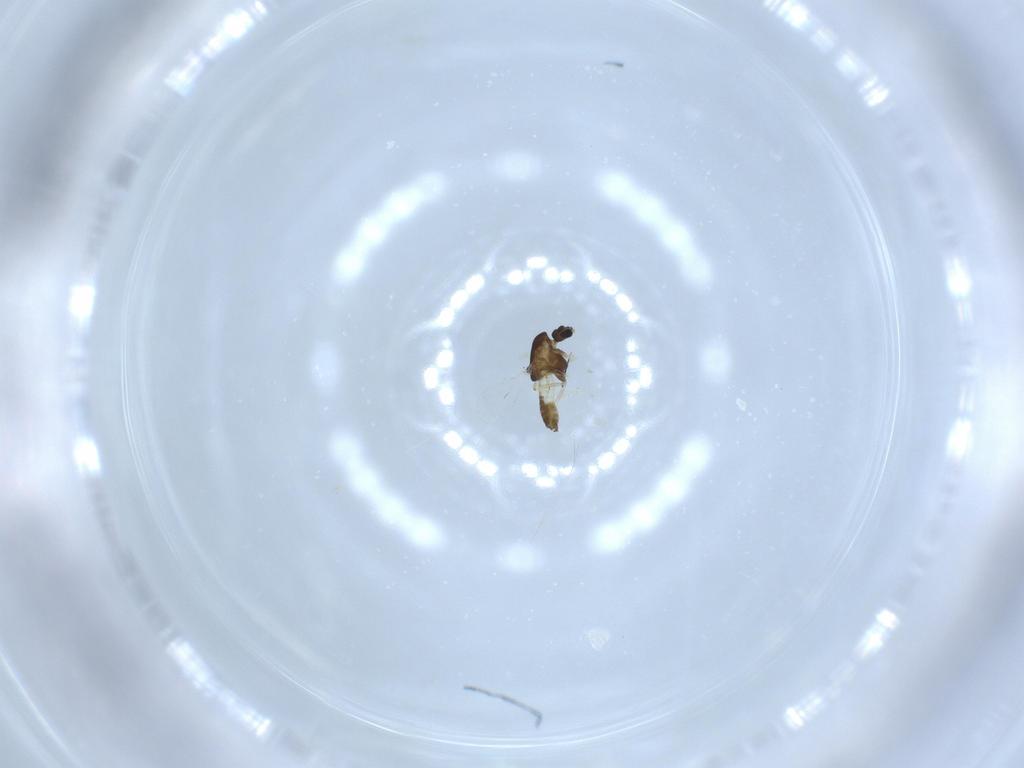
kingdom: Animalia
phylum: Arthropoda
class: Insecta
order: Diptera
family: Chironomidae
